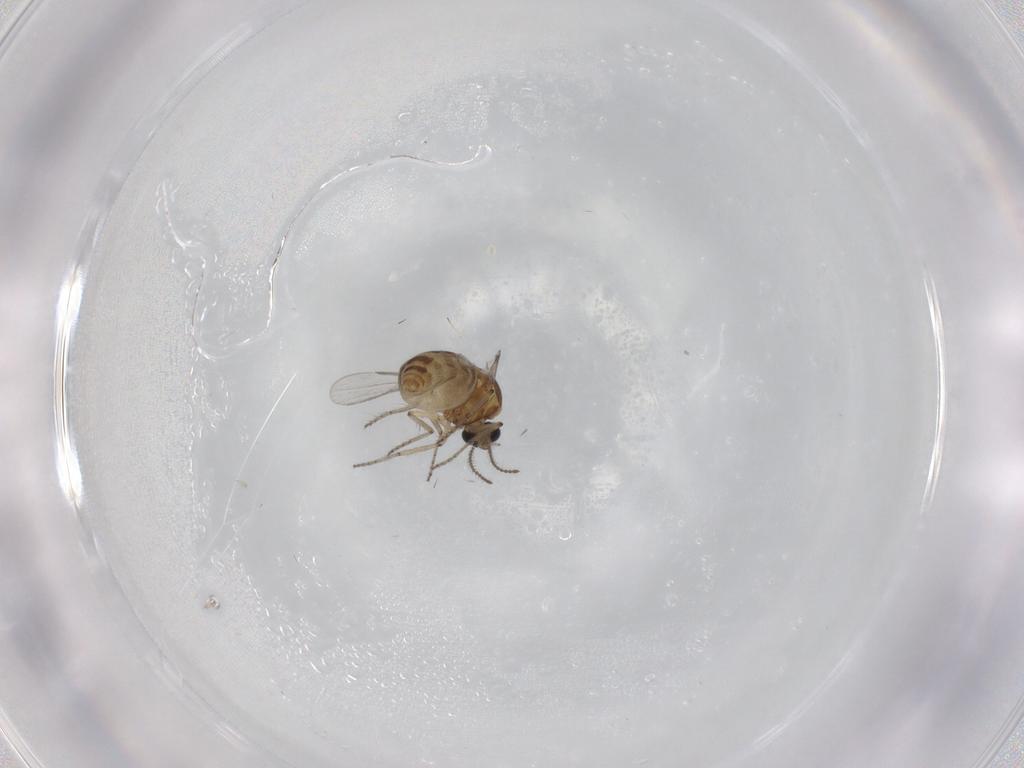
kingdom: Animalia
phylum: Arthropoda
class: Insecta
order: Diptera
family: Ceratopogonidae
